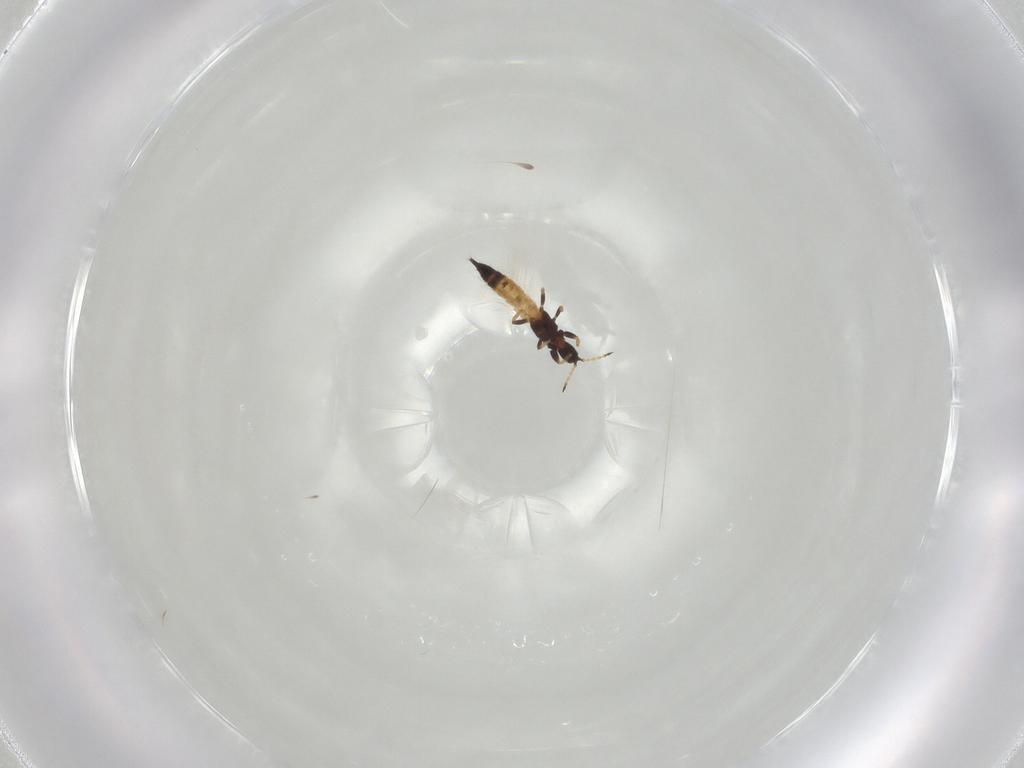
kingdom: Animalia
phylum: Arthropoda
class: Insecta
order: Thysanoptera
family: Phlaeothripidae
